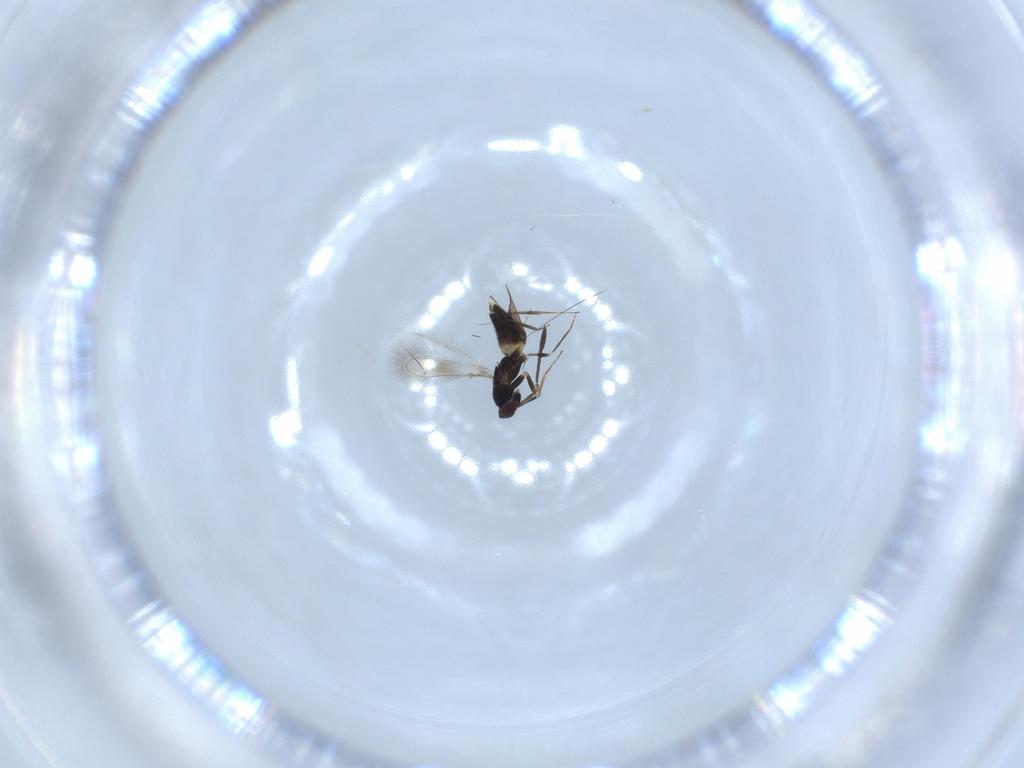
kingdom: Animalia
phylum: Arthropoda
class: Insecta
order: Hymenoptera
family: Mymaridae
